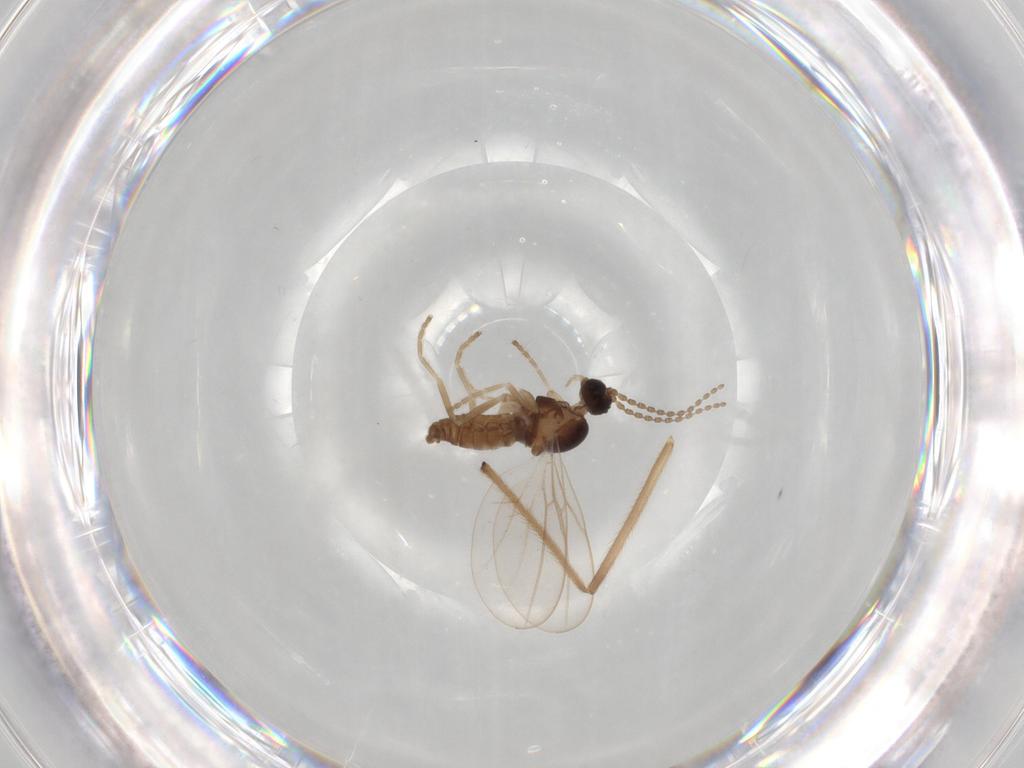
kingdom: Animalia
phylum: Arthropoda
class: Insecta
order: Diptera
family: Cecidomyiidae
